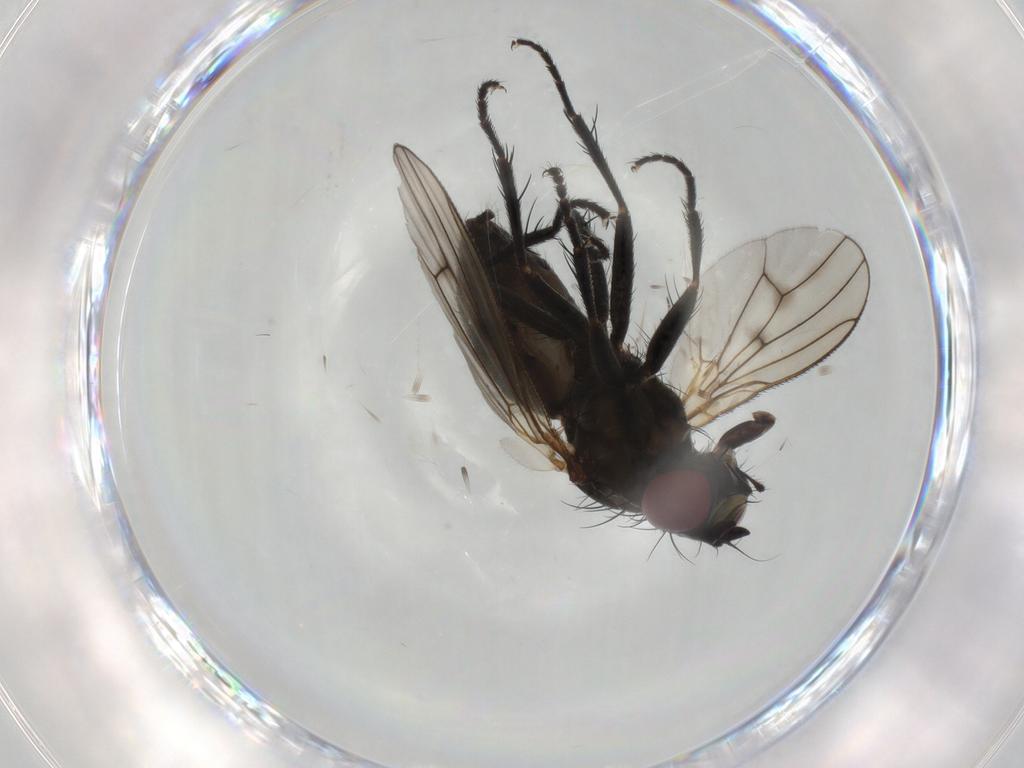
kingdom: Animalia
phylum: Arthropoda
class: Insecta
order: Diptera
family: Muscidae
